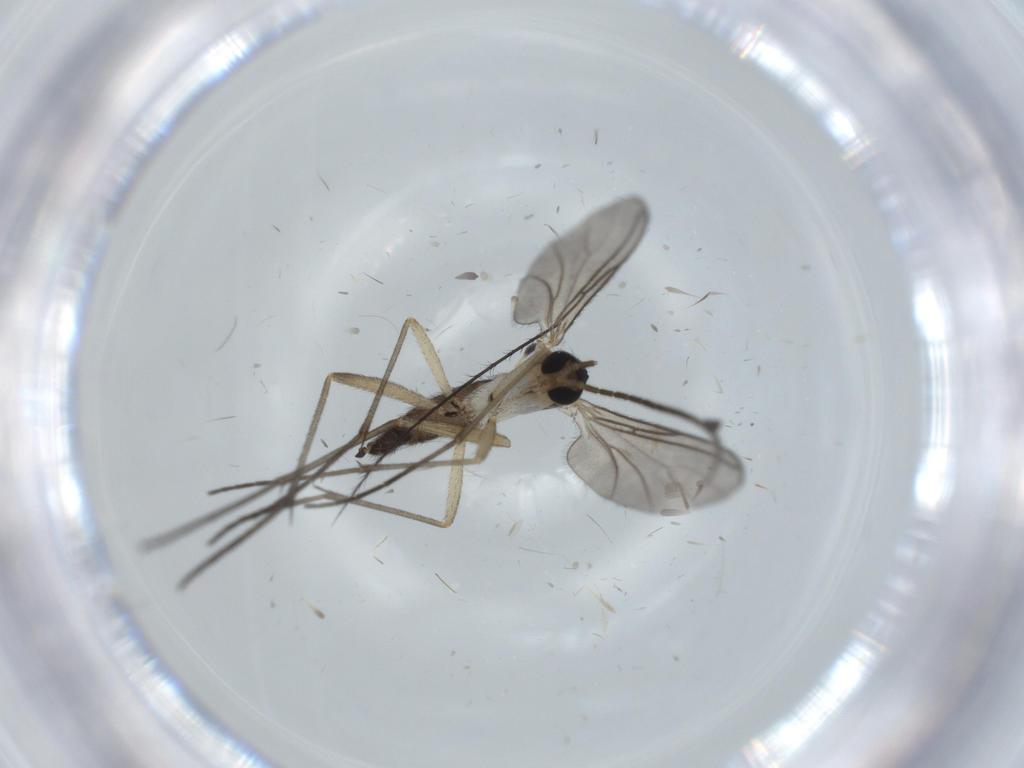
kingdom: Animalia
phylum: Arthropoda
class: Insecta
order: Diptera
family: Sciaridae
